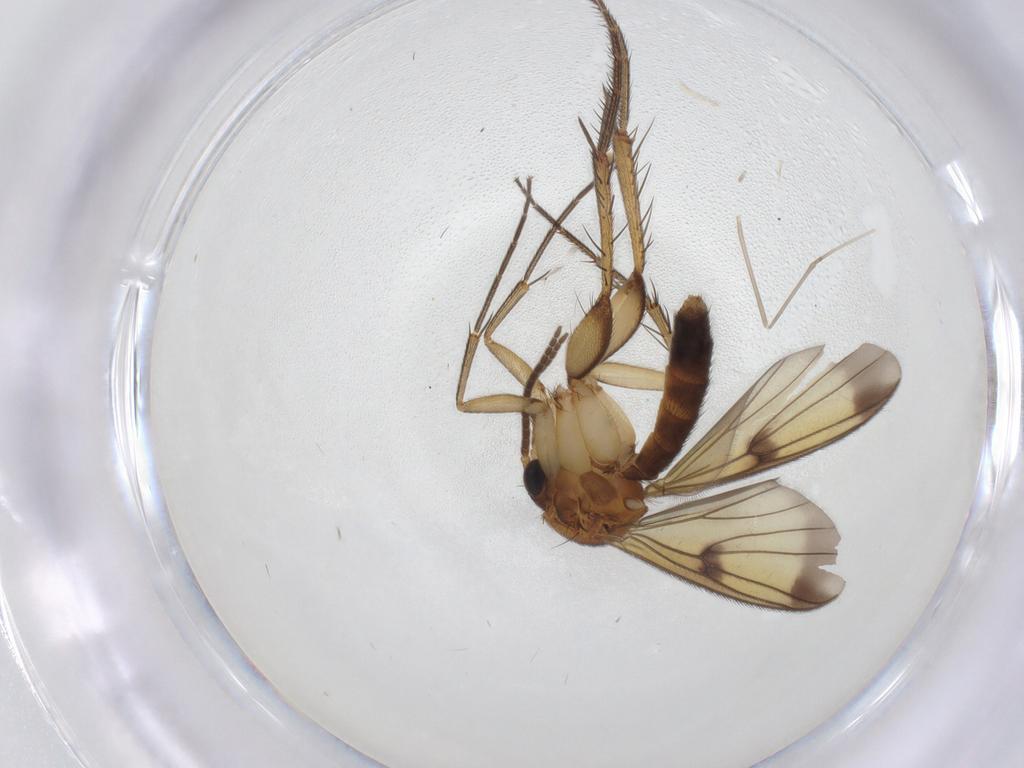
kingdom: Animalia
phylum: Arthropoda
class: Insecta
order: Diptera
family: Mycetophilidae
